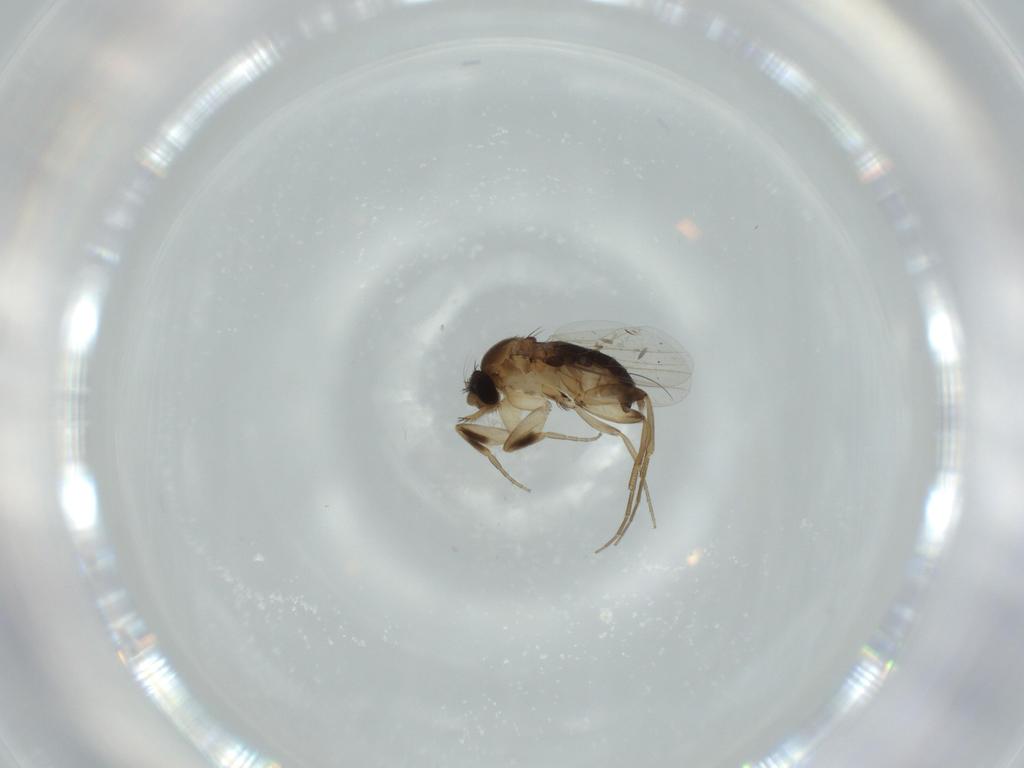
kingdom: Animalia
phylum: Arthropoda
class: Insecta
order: Diptera
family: Sphaeroceridae
